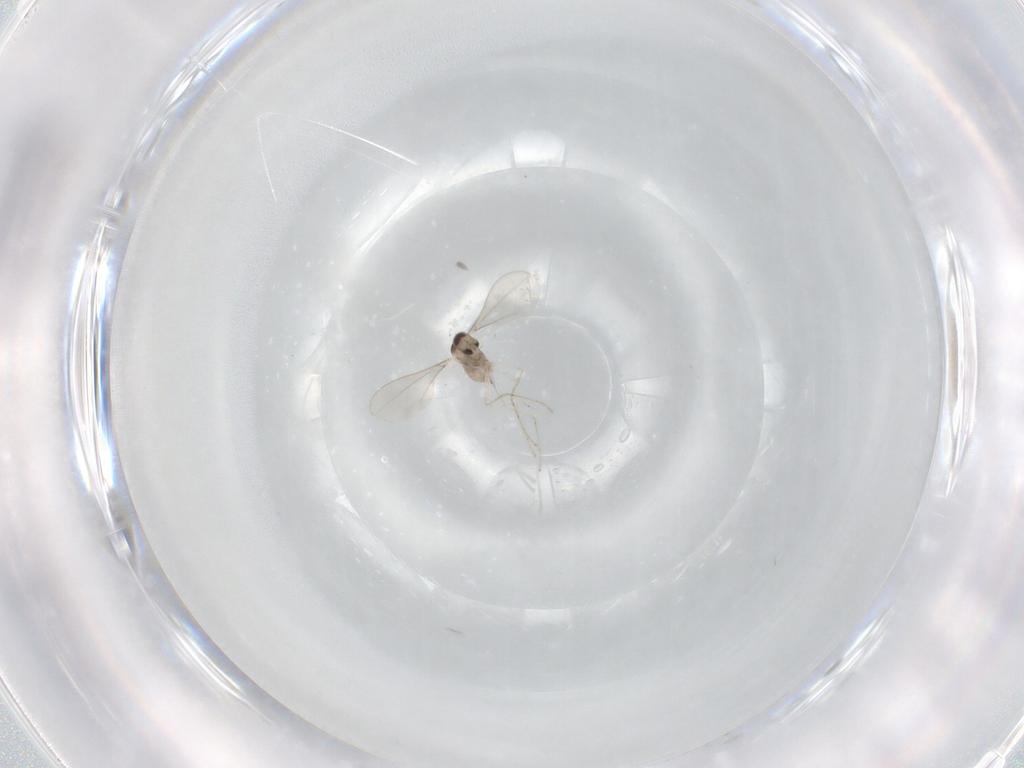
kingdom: Animalia
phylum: Arthropoda
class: Insecta
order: Diptera
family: Cecidomyiidae
